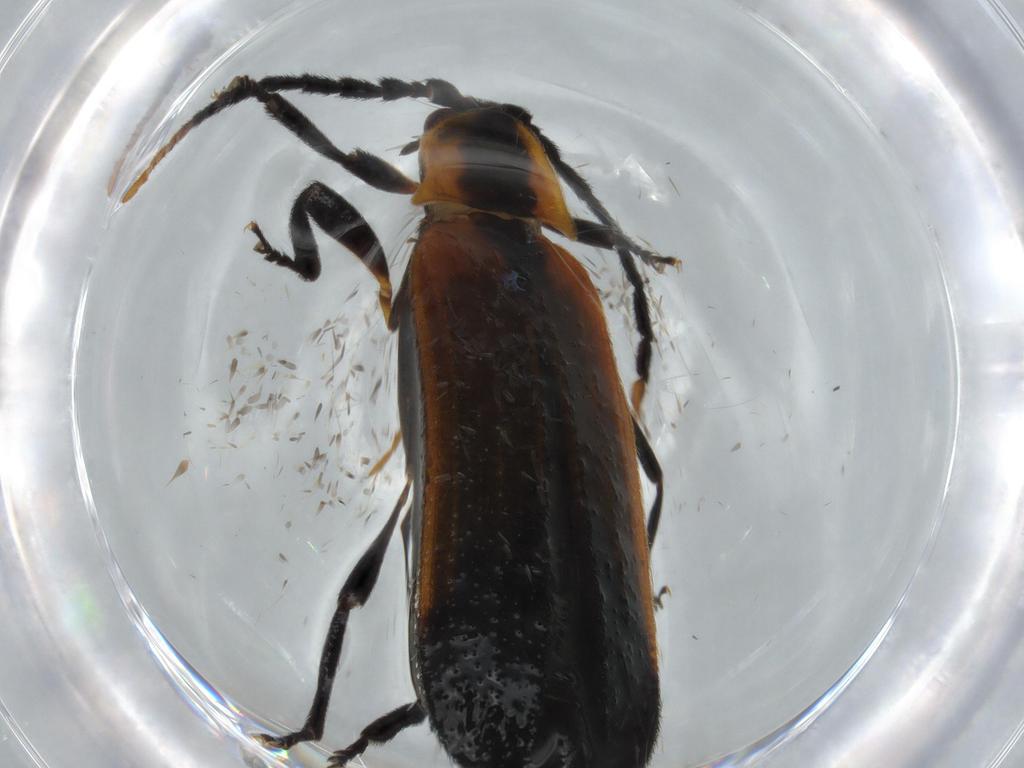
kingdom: Animalia
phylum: Arthropoda
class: Insecta
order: Coleoptera
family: Lycidae
